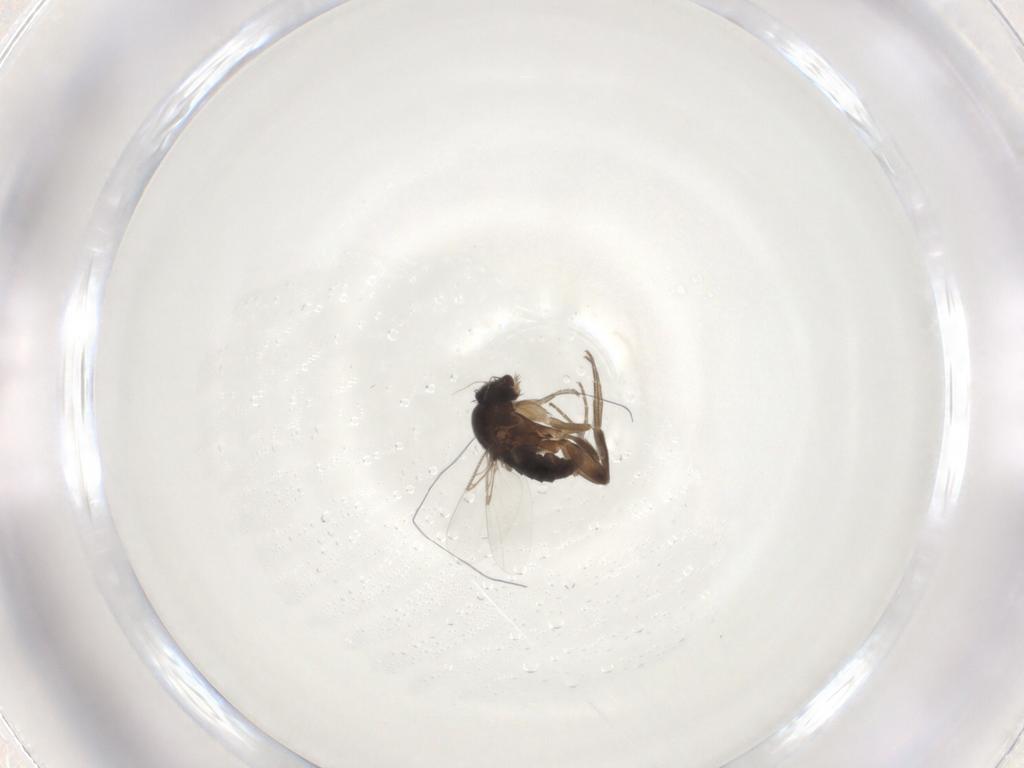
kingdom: Animalia
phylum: Arthropoda
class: Insecta
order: Diptera
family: Phoridae
